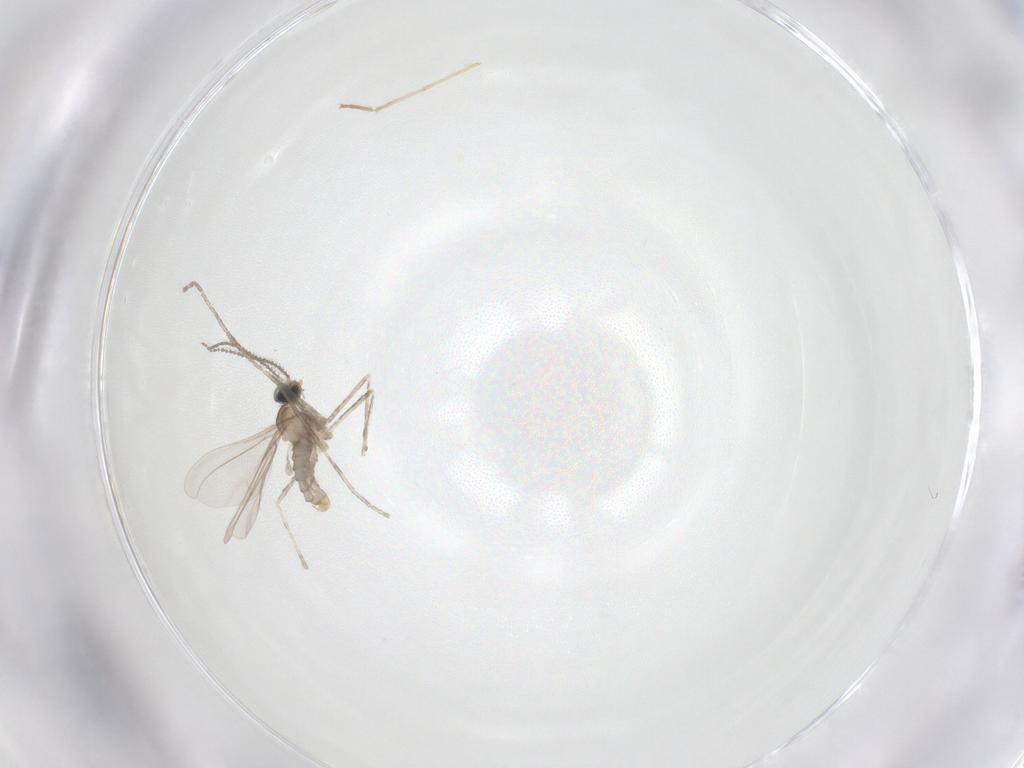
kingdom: Animalia
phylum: Arthropoda
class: Insecta
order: Diptera
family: Cecidomyiidae
